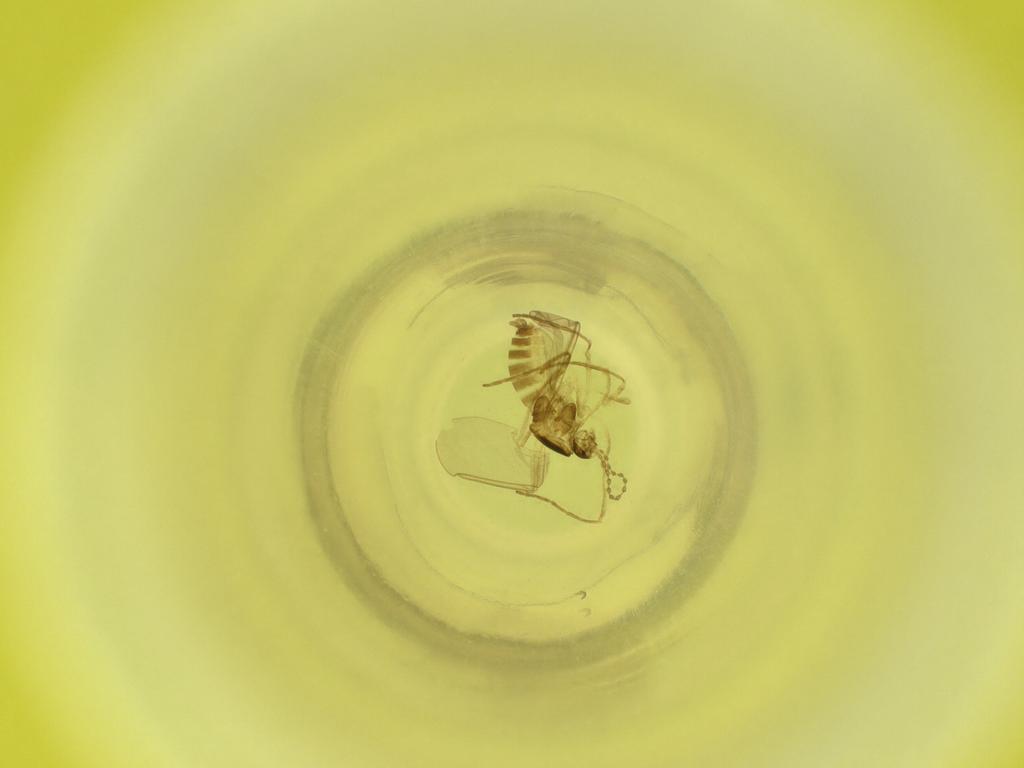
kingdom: Animalia
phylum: Arthropoda
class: Insecta
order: Diptera
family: Cecidomyiidae
